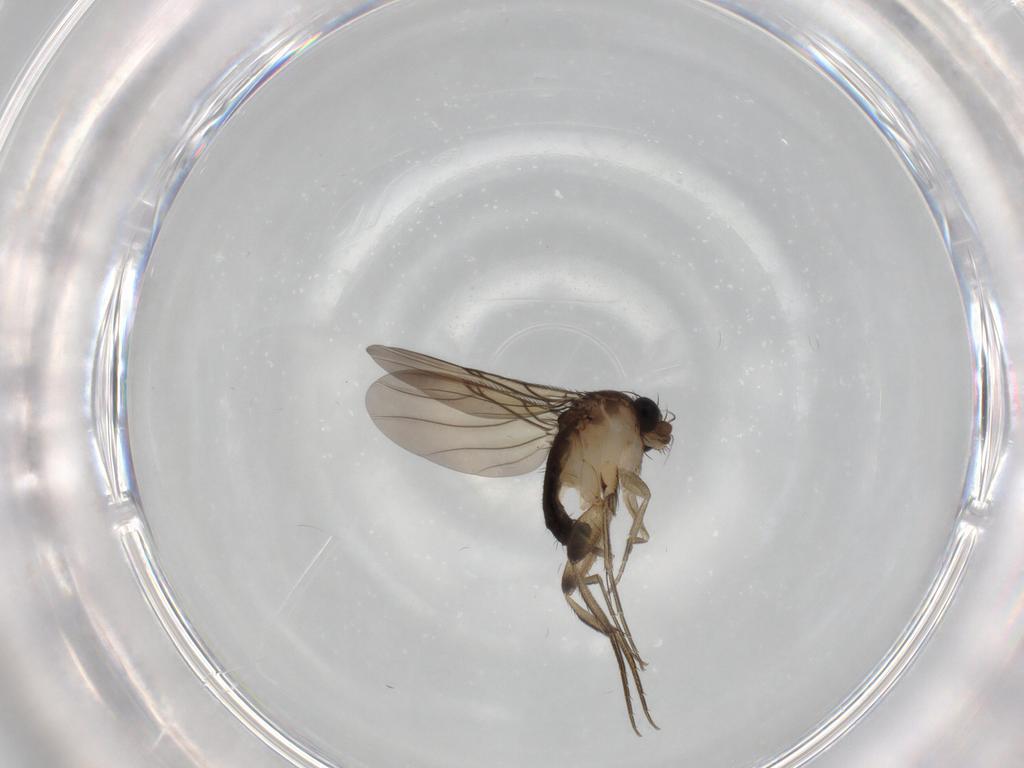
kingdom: Animalia
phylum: Arthropoda
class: Insecta
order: Diptera
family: Phoridae
